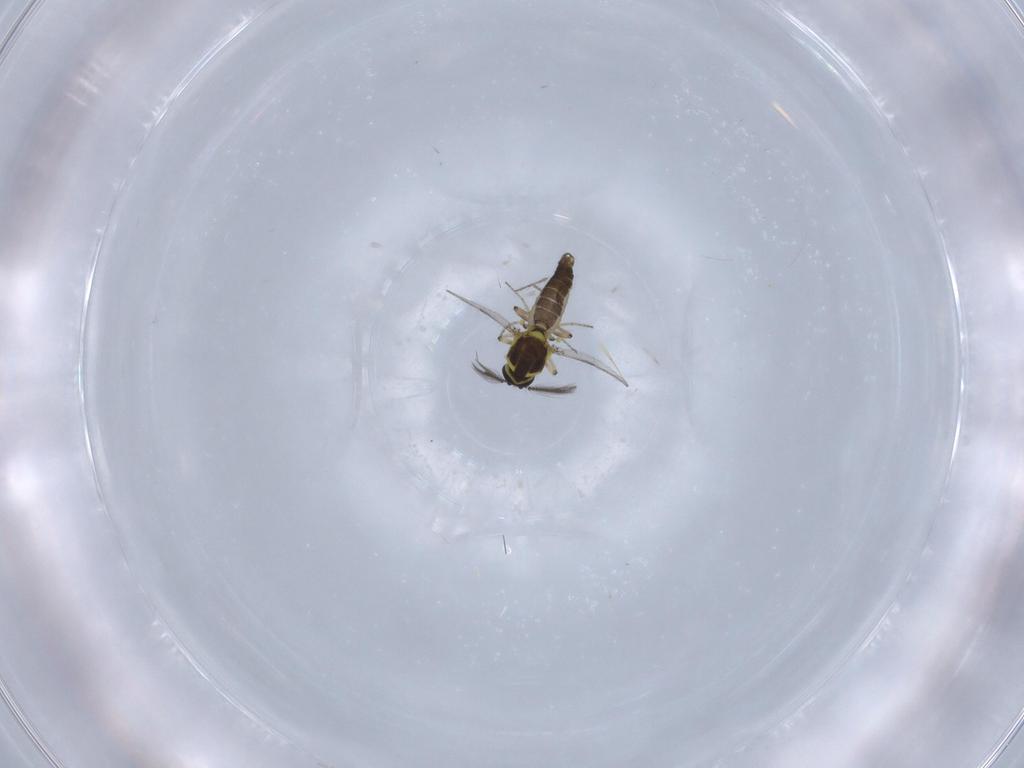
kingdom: Animalia
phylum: Arthropoda
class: Insecta
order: Diptera
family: Ceratopogonidae
